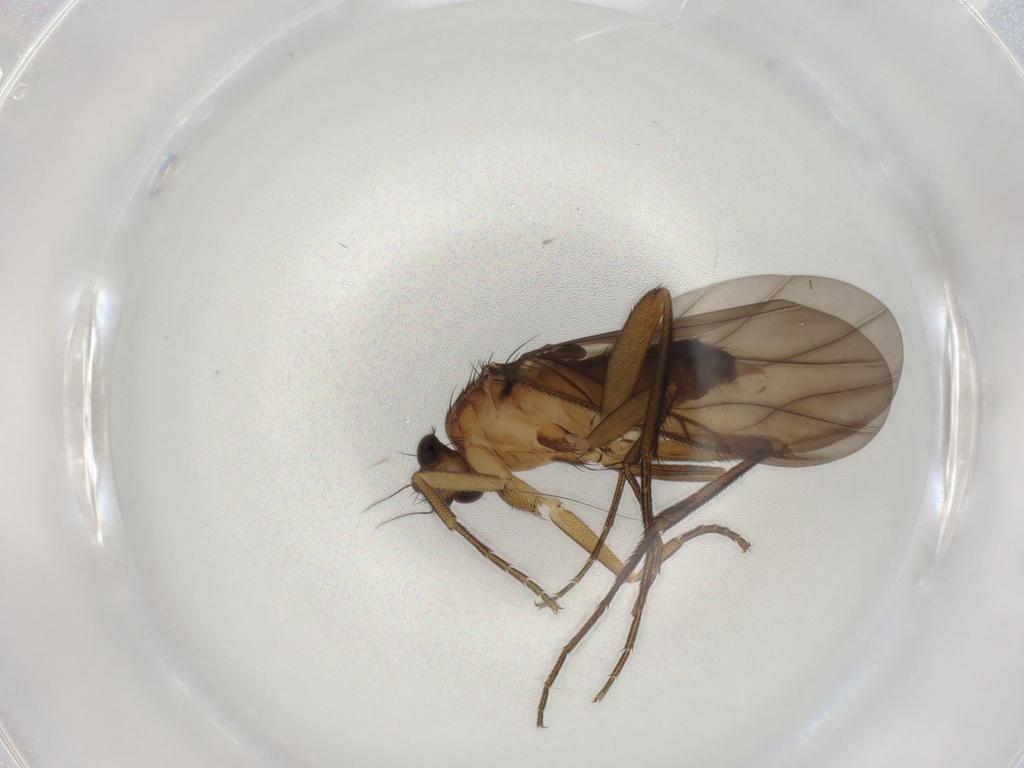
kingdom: Animalia
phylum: Arthropoda
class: Insecta
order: Diptera
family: Phoridae
